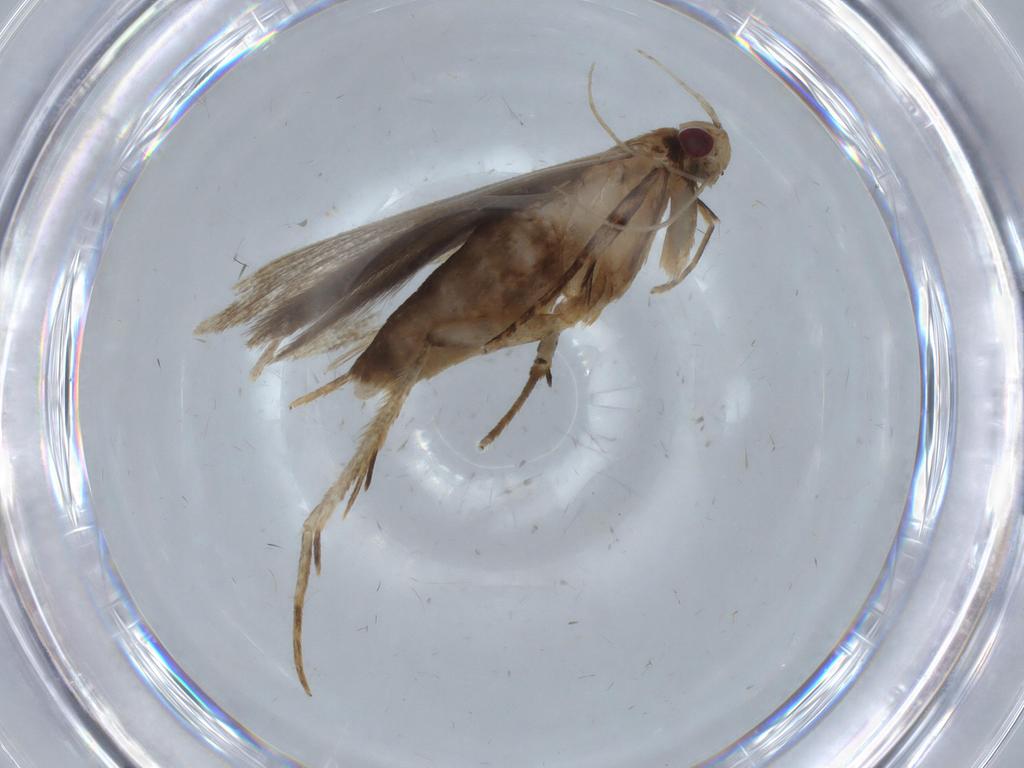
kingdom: Animalia
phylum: Arthropoda
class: Insecta
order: Lepidoptera
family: Gelechiidae
